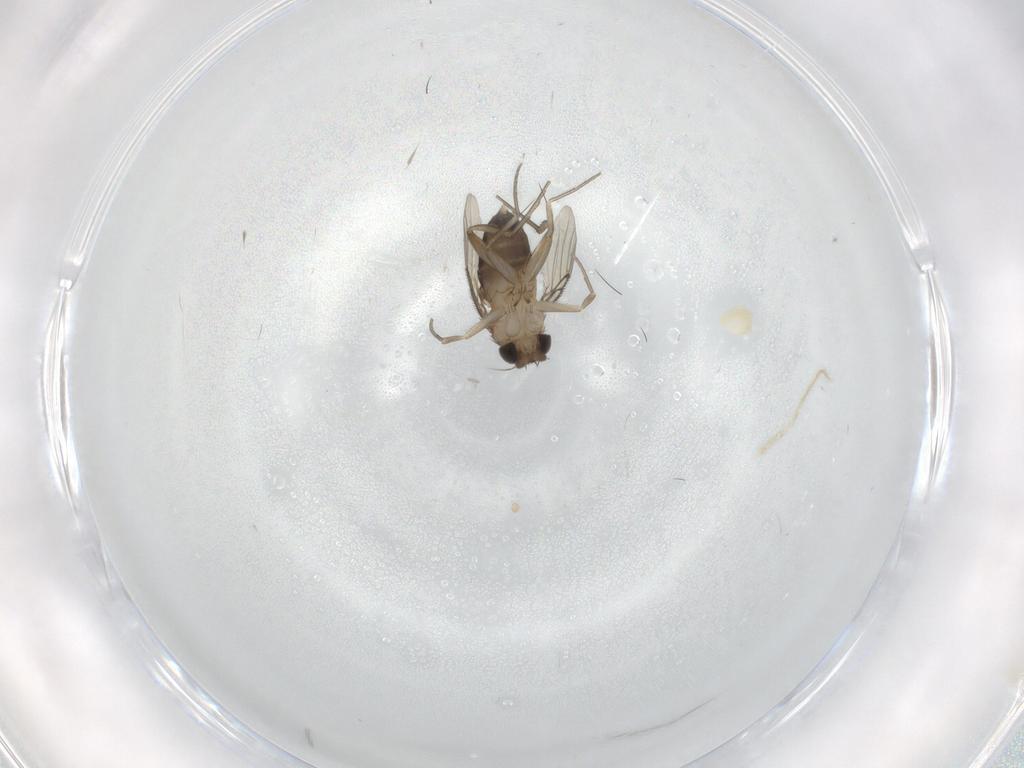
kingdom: Animalia
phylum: Arthropoda
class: Insecta
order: Diptera
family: Phoridae
